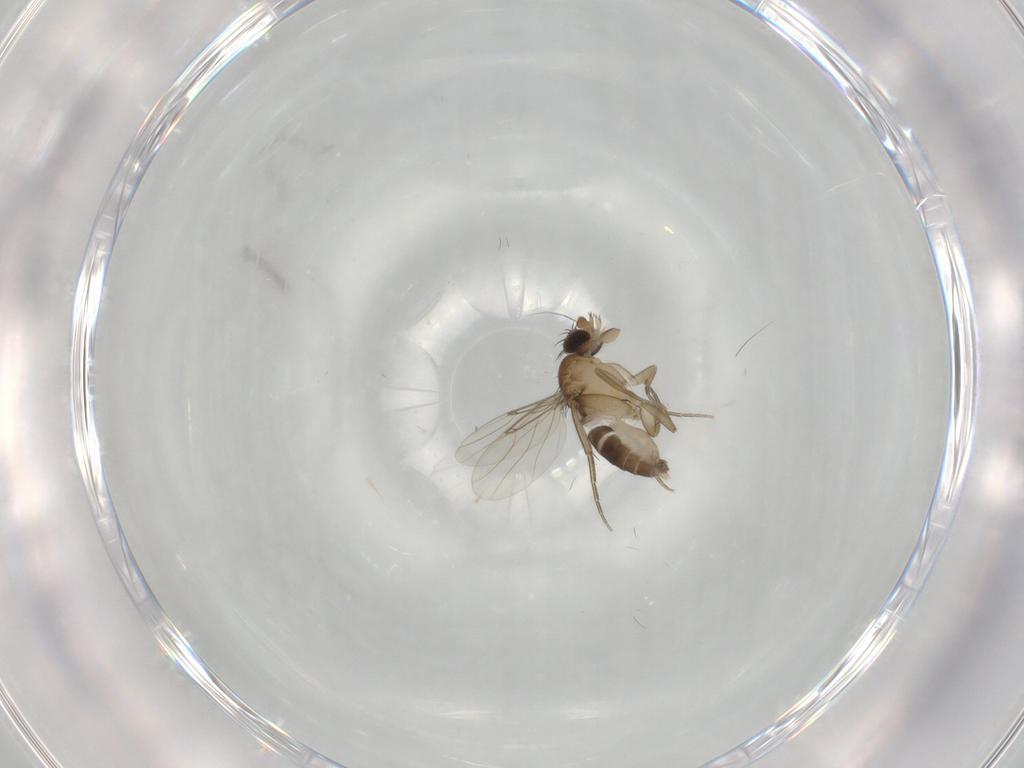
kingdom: Animalia
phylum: Arthropoda
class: Insecta
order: Diptera
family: Phoridae
